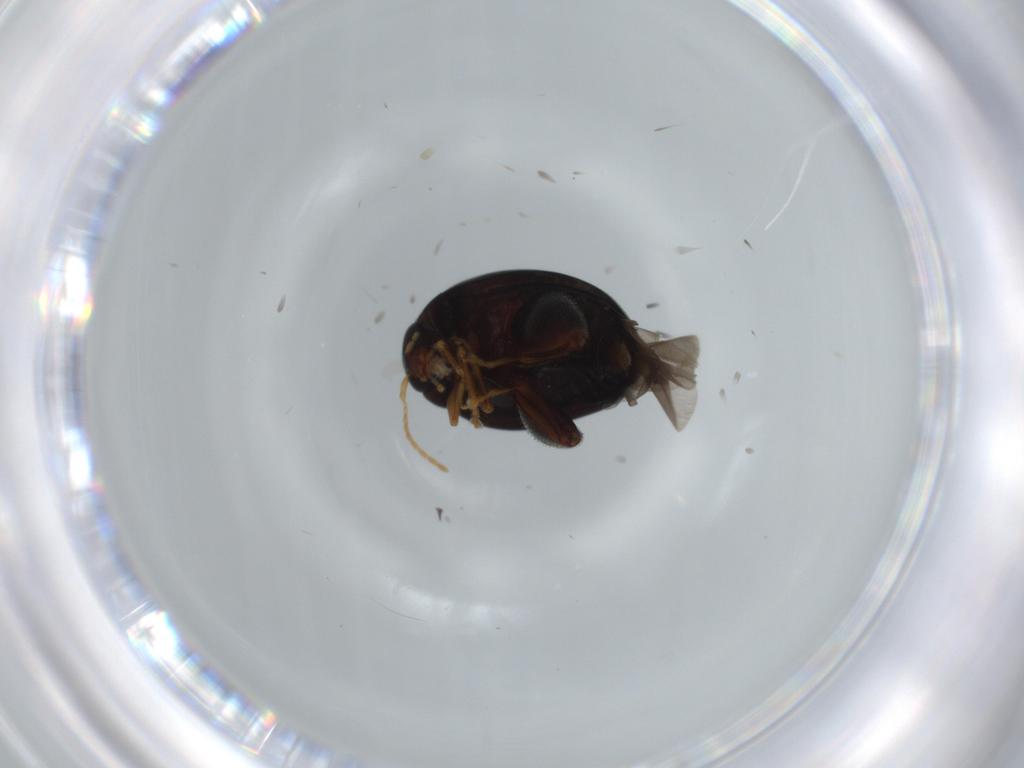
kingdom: Animalia
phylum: Arthropoda
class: Insecta
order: Coleoptera
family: Chrysomelidae
